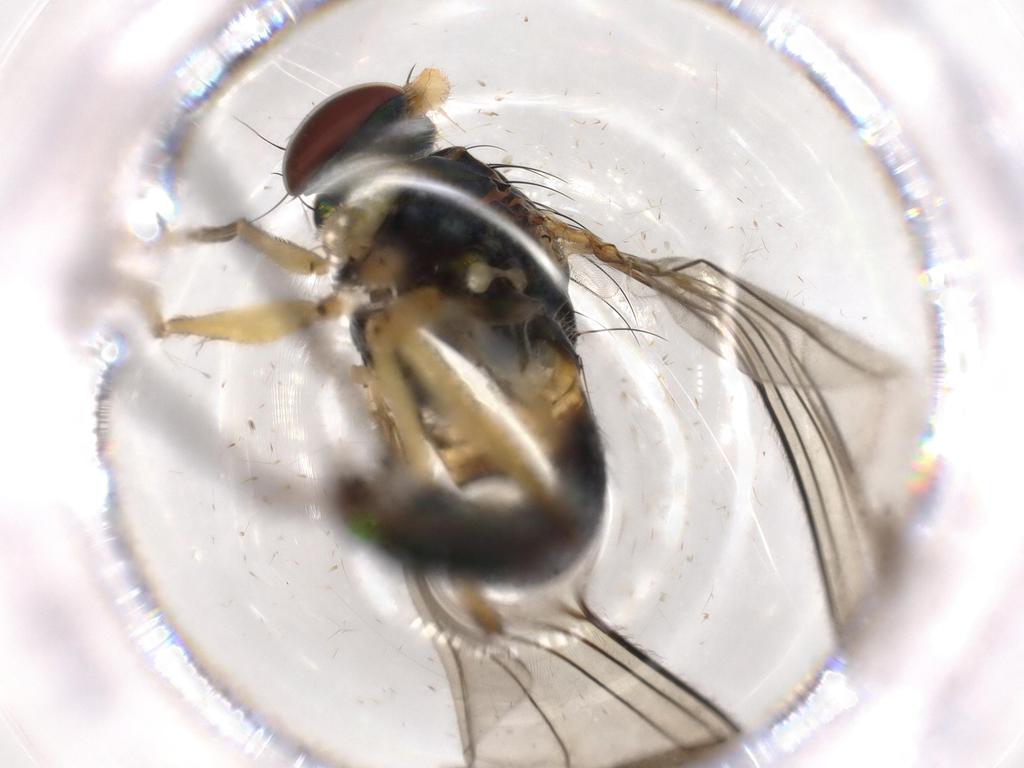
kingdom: Animalia
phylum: Arthropoda
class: Insecta
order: Diptera
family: Dolichopodidae
